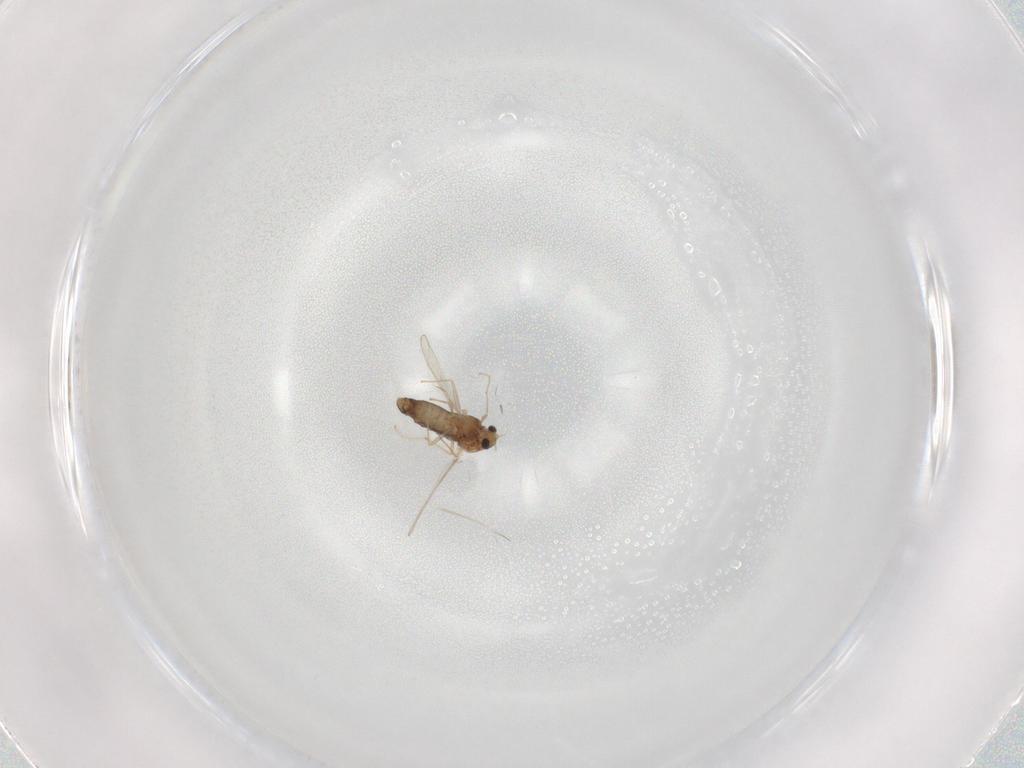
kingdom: Animalia
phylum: Arthropoda
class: Insecta
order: Diptera
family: Chironomidae
